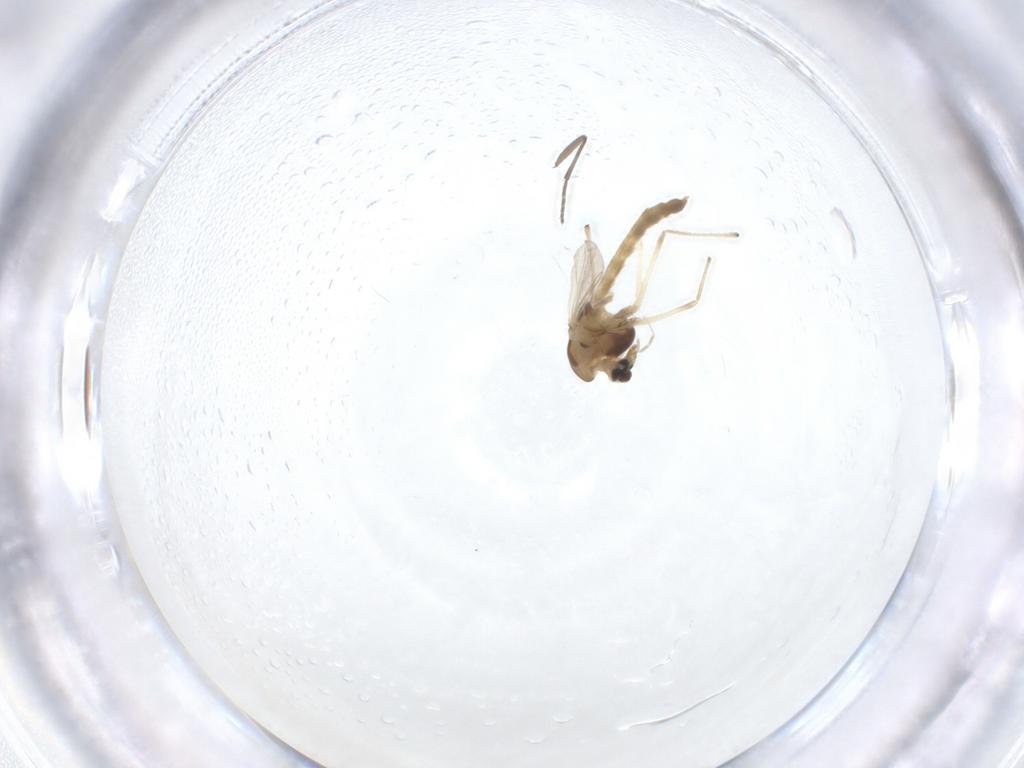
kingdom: Animalia
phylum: Arthropoda
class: Insecta
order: Diptera
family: Chironomidae
